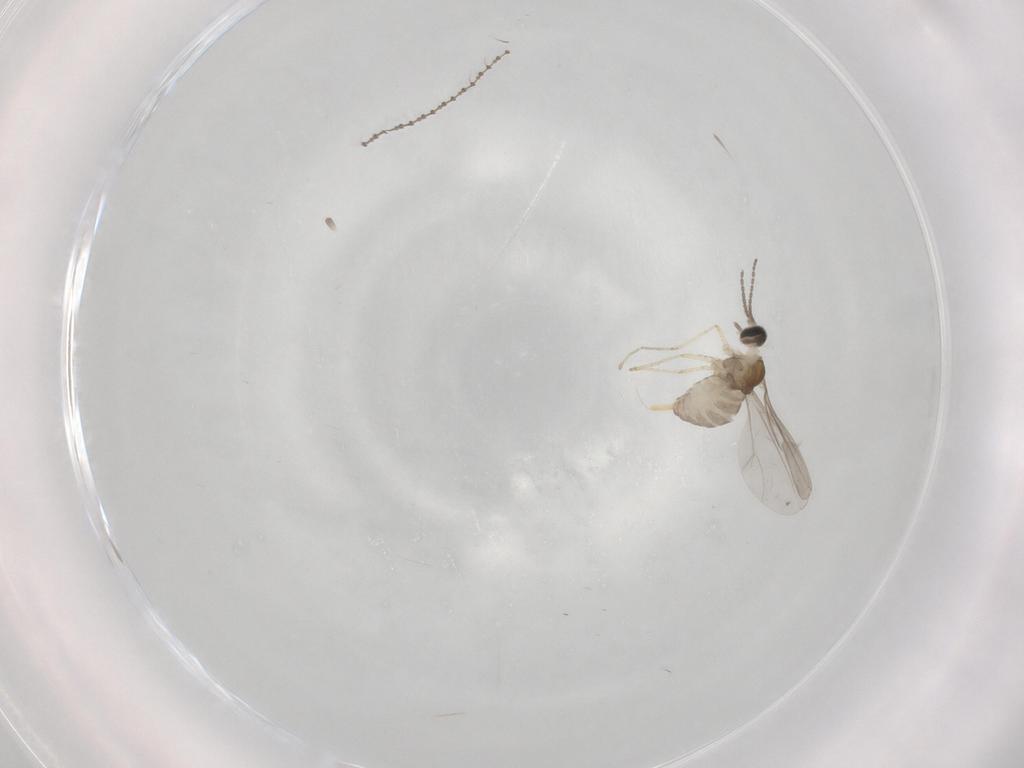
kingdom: Animalia
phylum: Arthropoda
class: Insecta
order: Diptera
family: Cecidomyiidae
